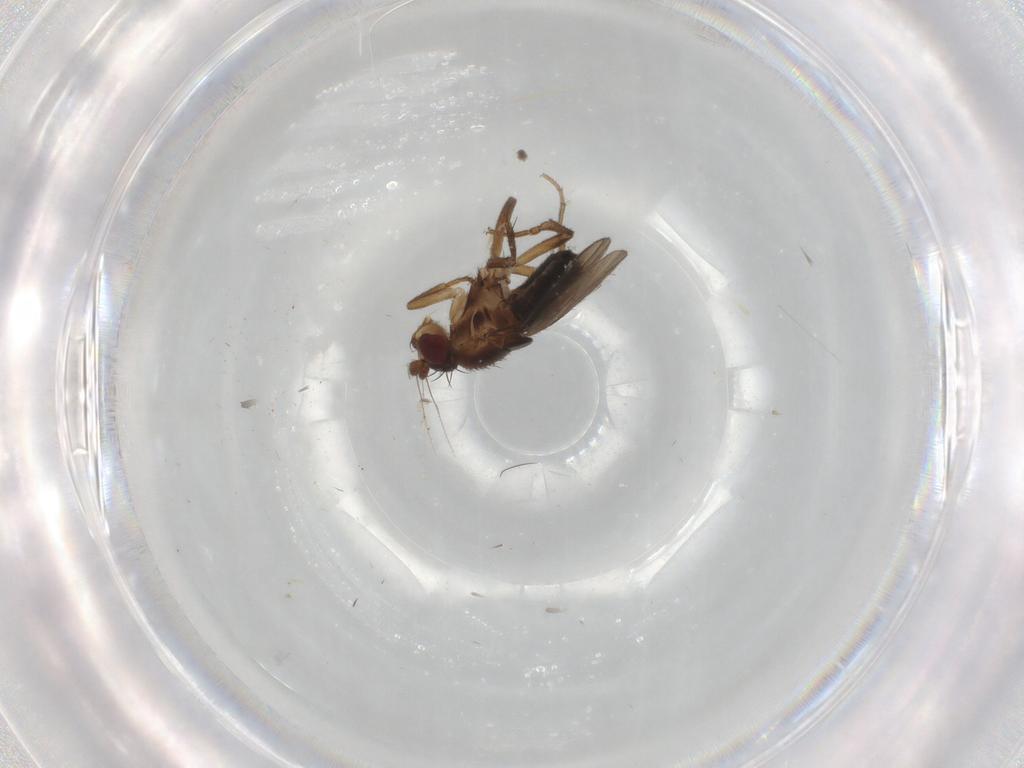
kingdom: Animalia
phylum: Arthropoda
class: Insecta
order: Diptera
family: Sphaeroceridae
